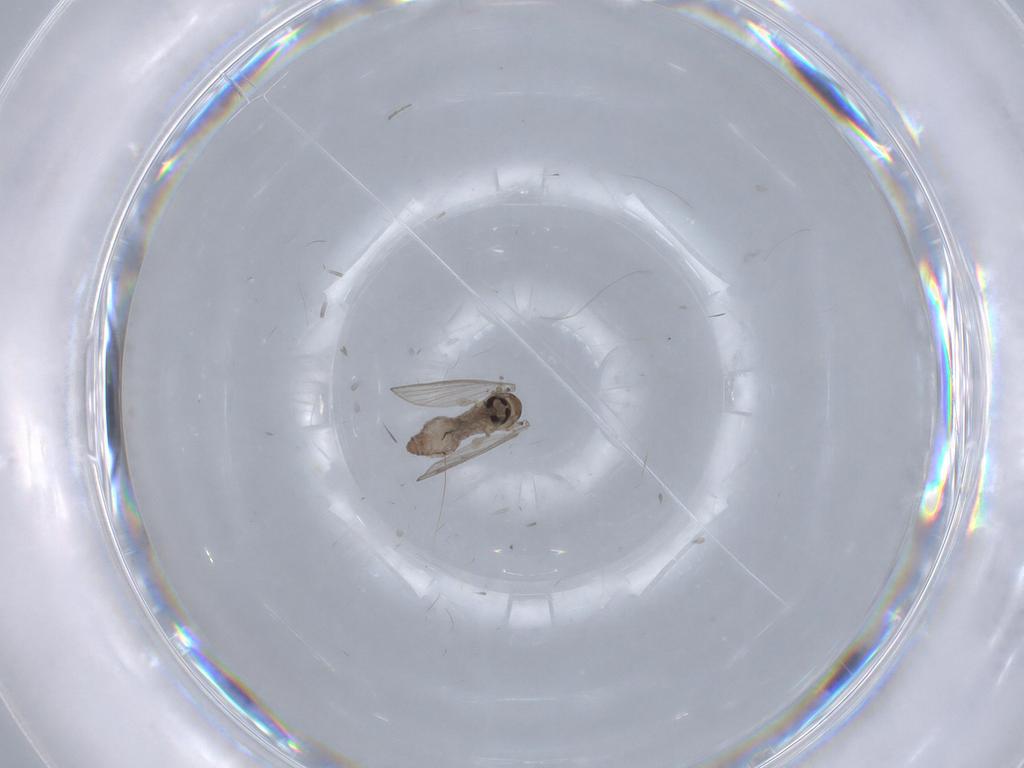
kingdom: Animalia
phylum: Arthropoda
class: Insecta
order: Diptera
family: Psychodidae
